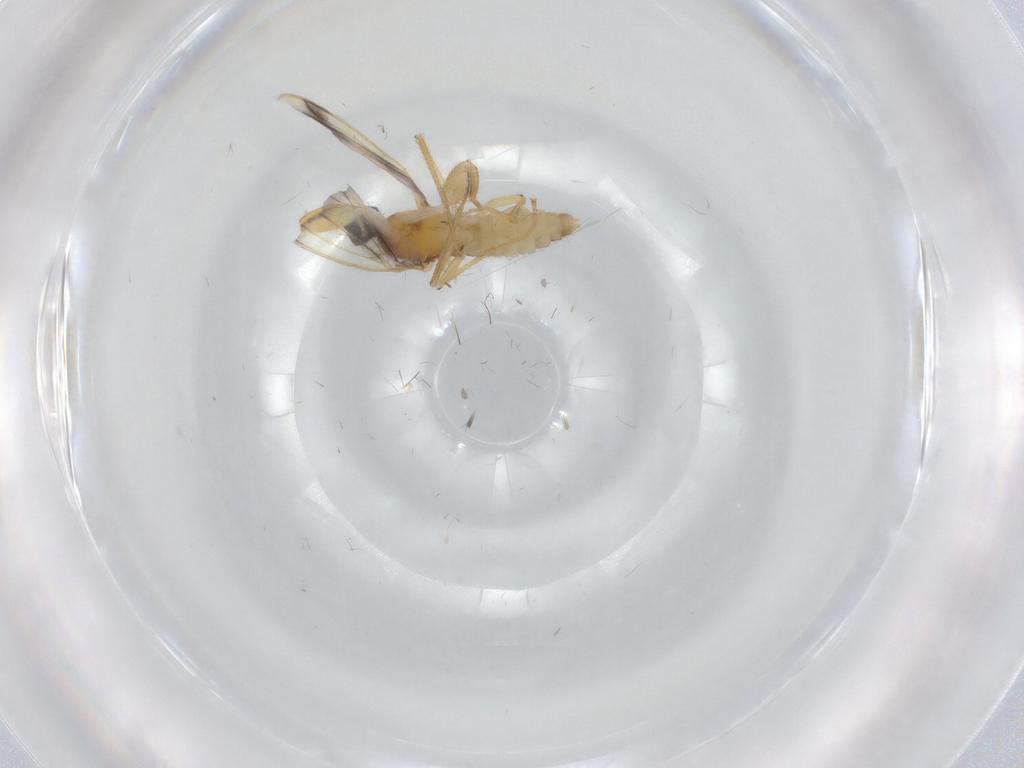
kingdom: Animalia
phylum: Arthropoda
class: Insecta
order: Diptera
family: Empididae
